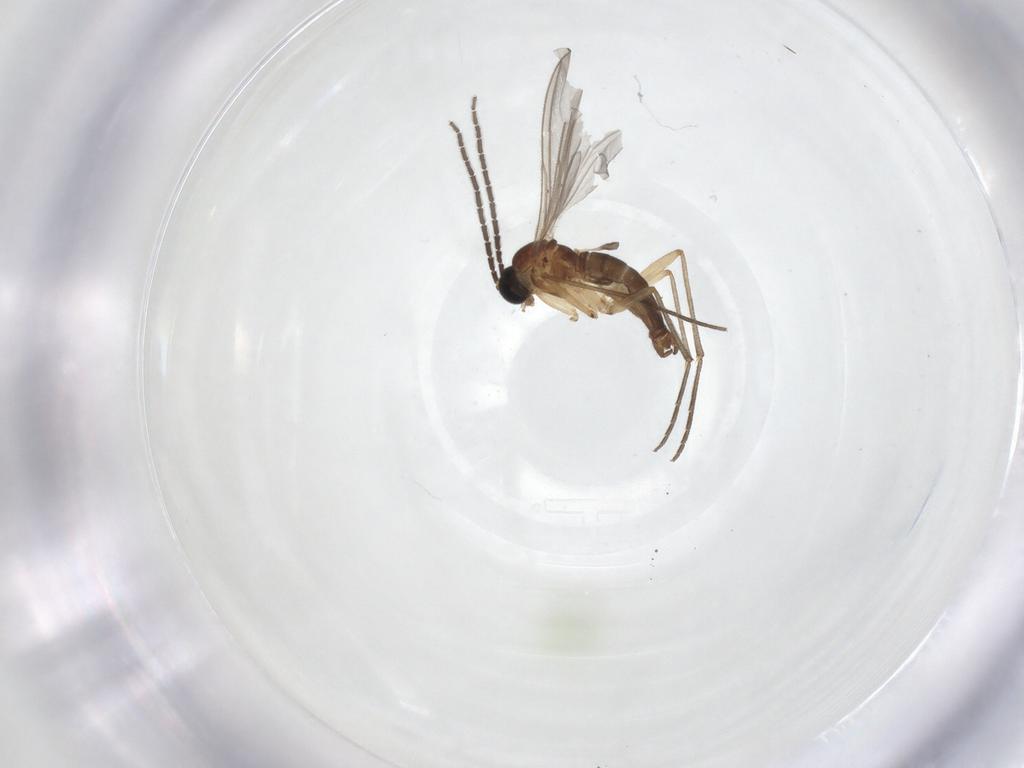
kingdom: Animalia
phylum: Arthropoda
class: Insecta
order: Diptera
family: Sciaridae
